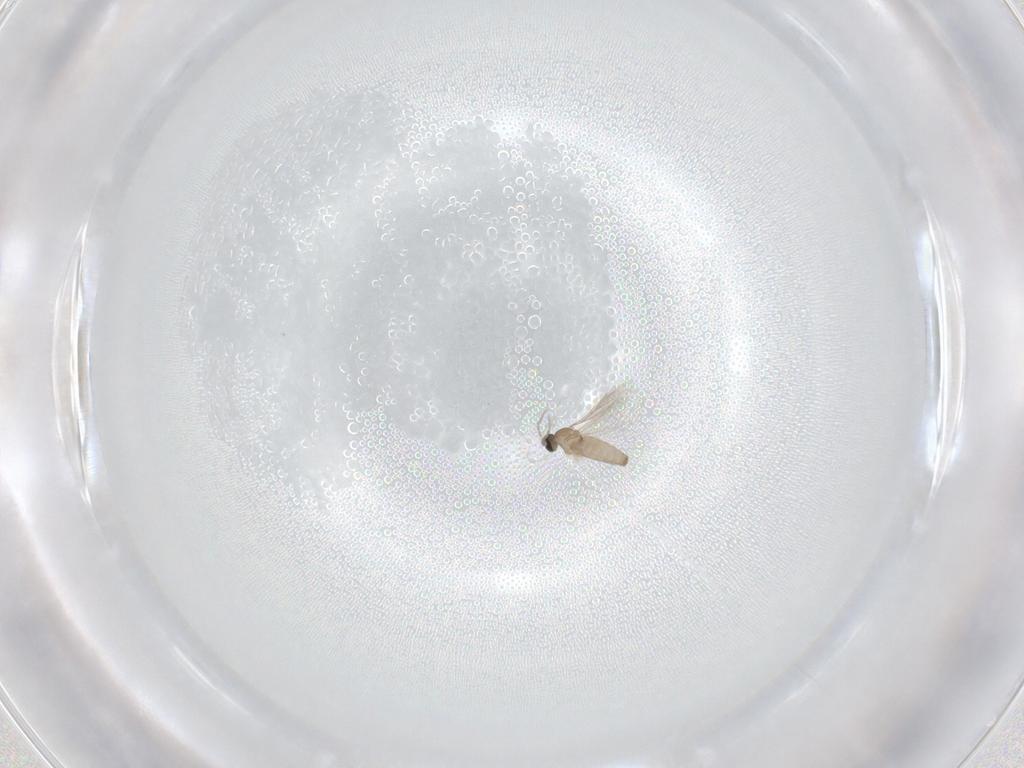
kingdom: Animalia
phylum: Arthropoda
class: Insecta
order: Diptera
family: Cecidomyiidae
